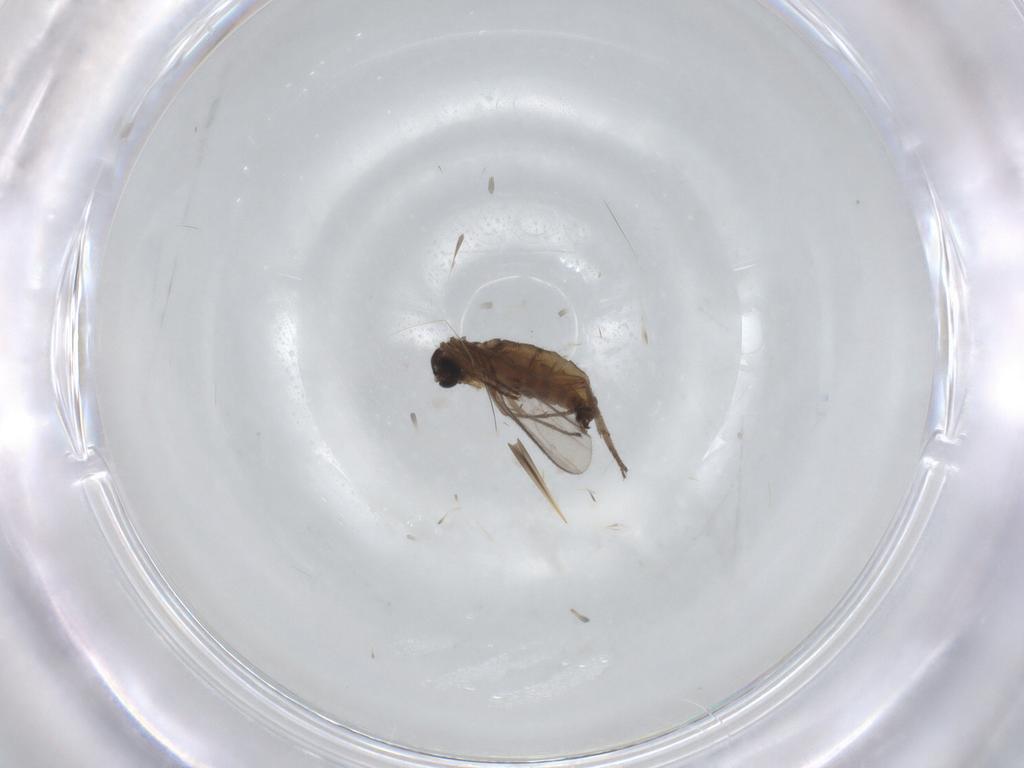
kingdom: Animalia
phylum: Arthropoda
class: Insecta
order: Diptera
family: Sciaridae
